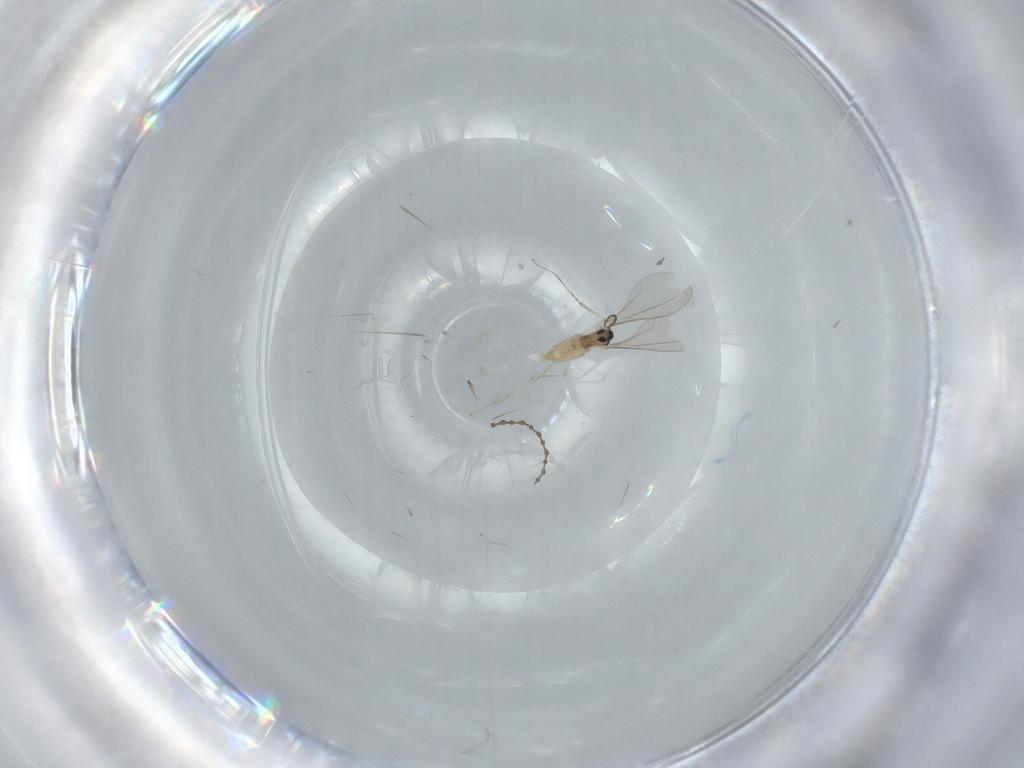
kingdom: Animalia
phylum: Arthropoda
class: Insecta
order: Diptera
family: Cecidomyiidae
